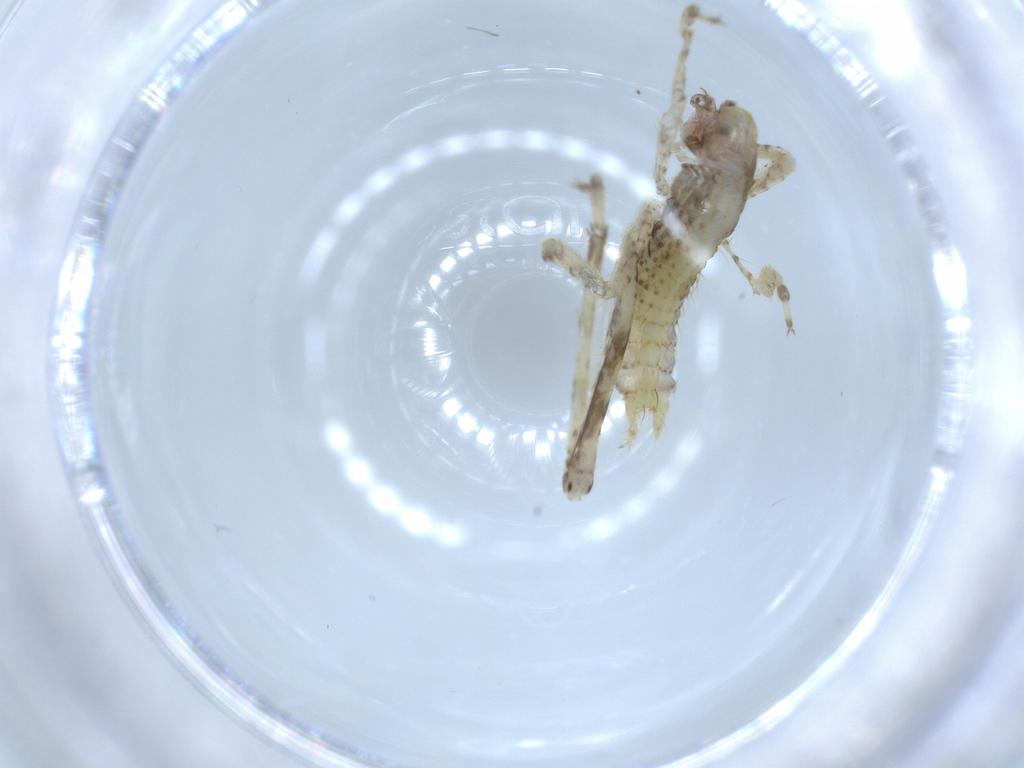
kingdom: Animalia
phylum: Arthropoda
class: Insecta
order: Orthoptera
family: Gryllidae
